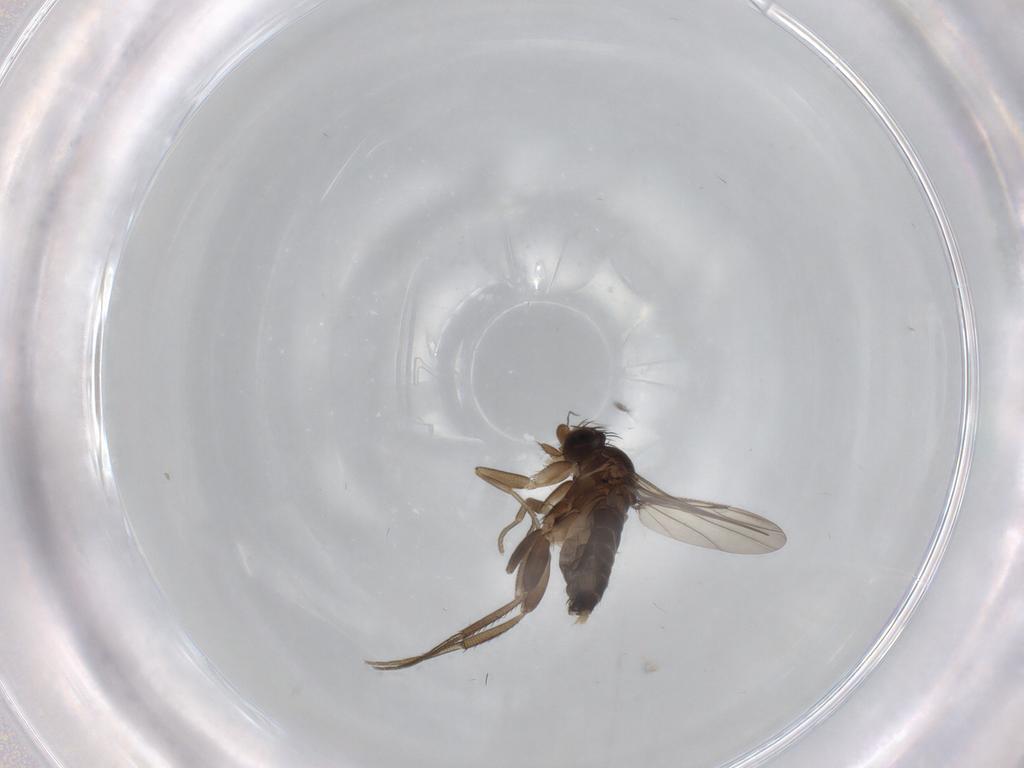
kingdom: Animalia
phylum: Arthropoda
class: Insecta
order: Diptera
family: Phoridae
